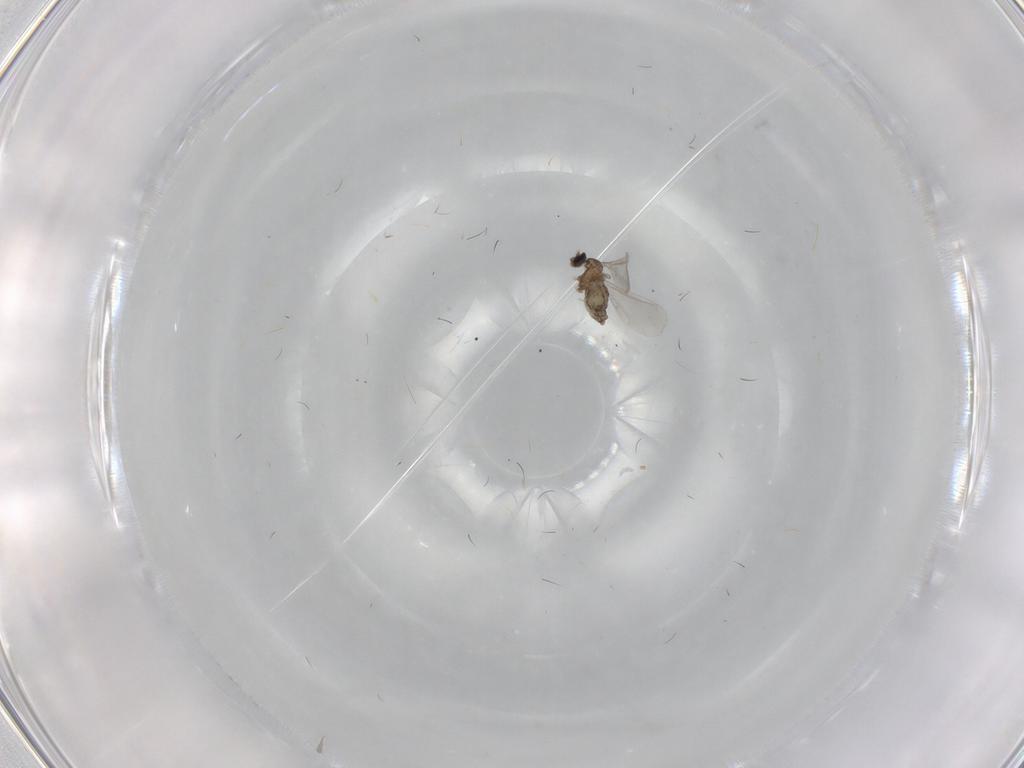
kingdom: Animalia
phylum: Arthropoda
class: Insecta
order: Diptera
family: Cecidomyiidae
